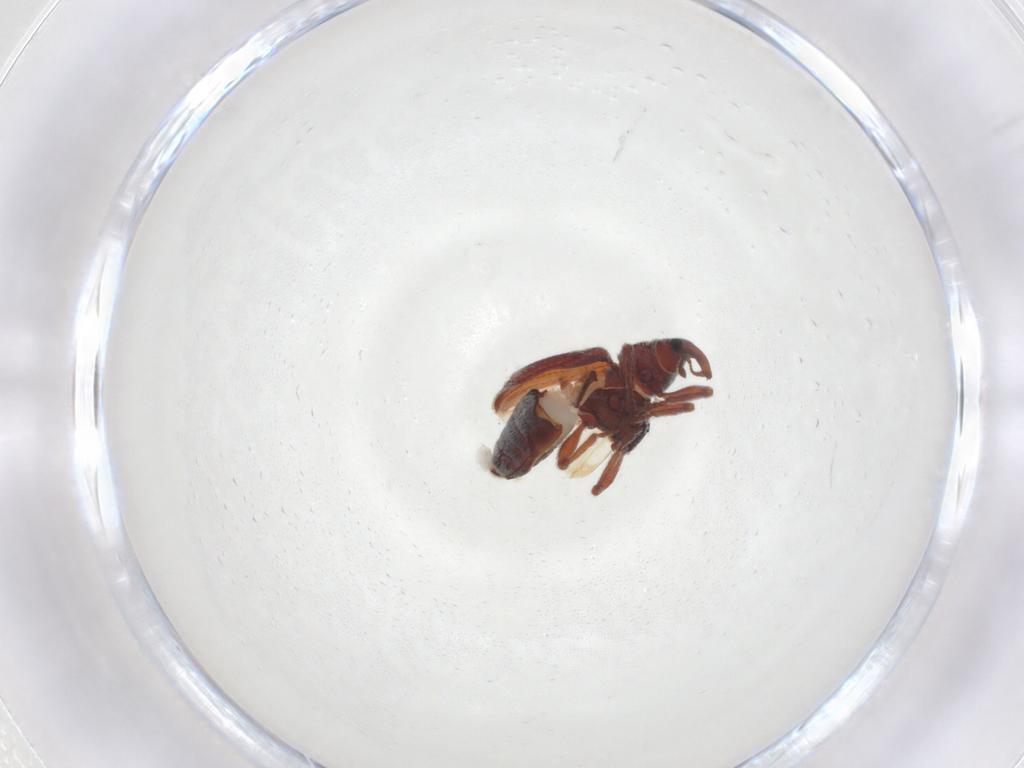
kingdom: Animalia
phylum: Arthropoda
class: Insecta
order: Coleoptera
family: Curculionidae
